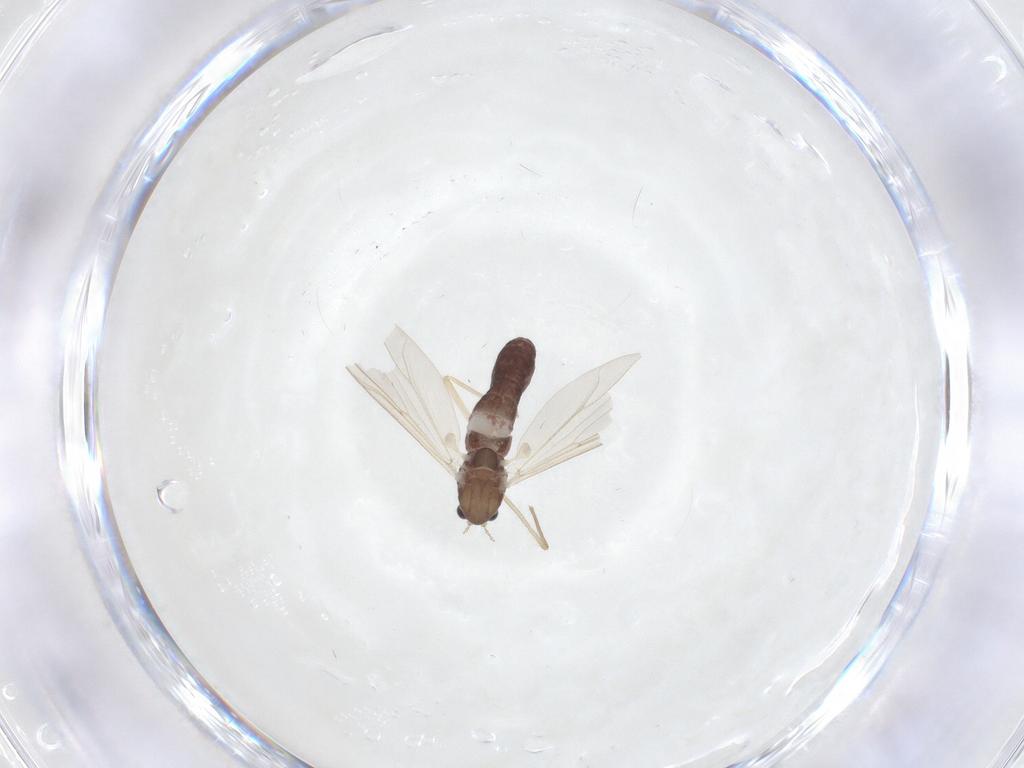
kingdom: Animalia
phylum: Arthropoda
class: Insecta
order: Diptera
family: Chironomidae
